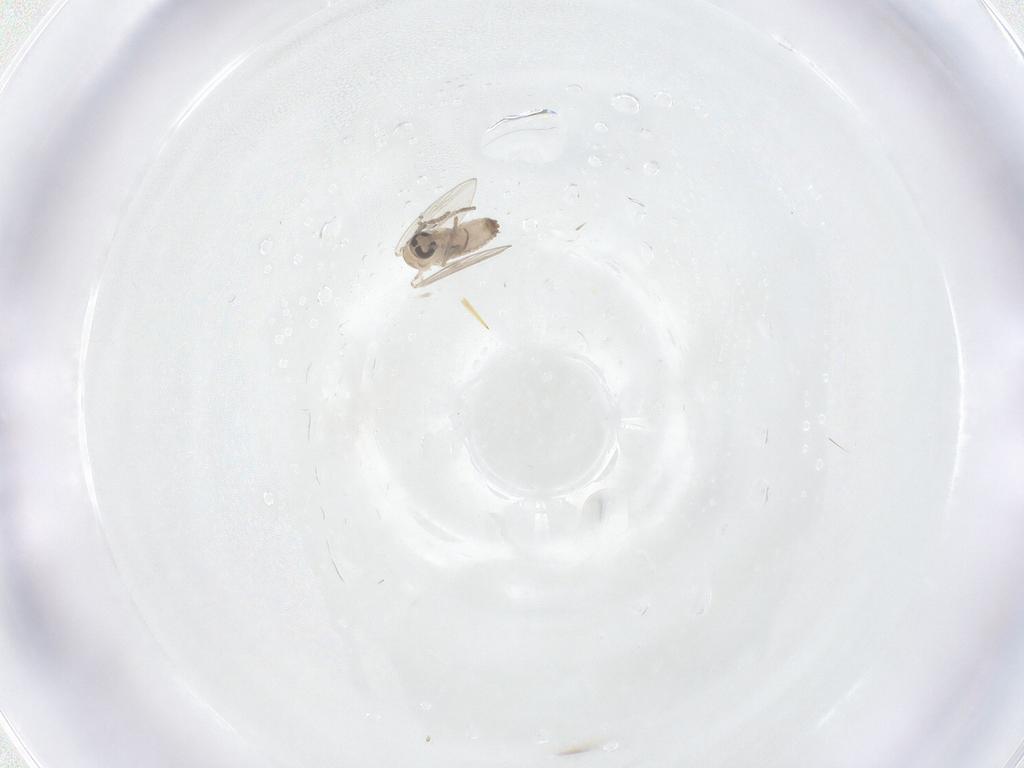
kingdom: Animalia
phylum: Arthropoda
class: Insecta
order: Diptera
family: Psychodidae
